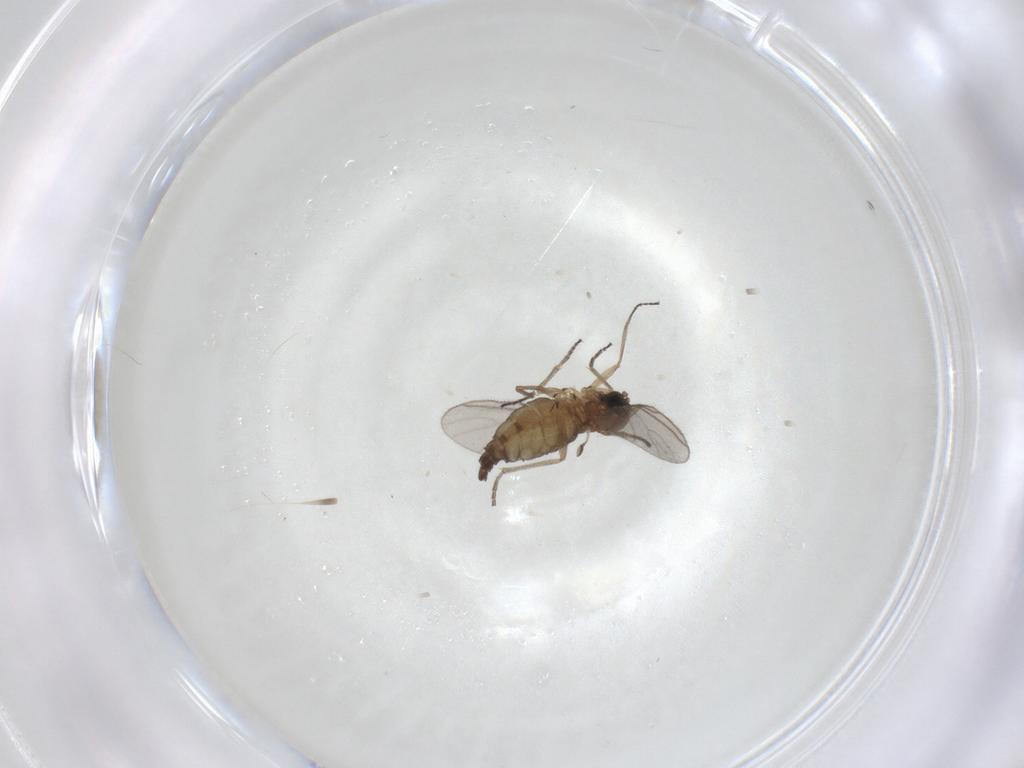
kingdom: Animalia
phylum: Arthropoda
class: Insecta
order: Diptera
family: Sciaridae
